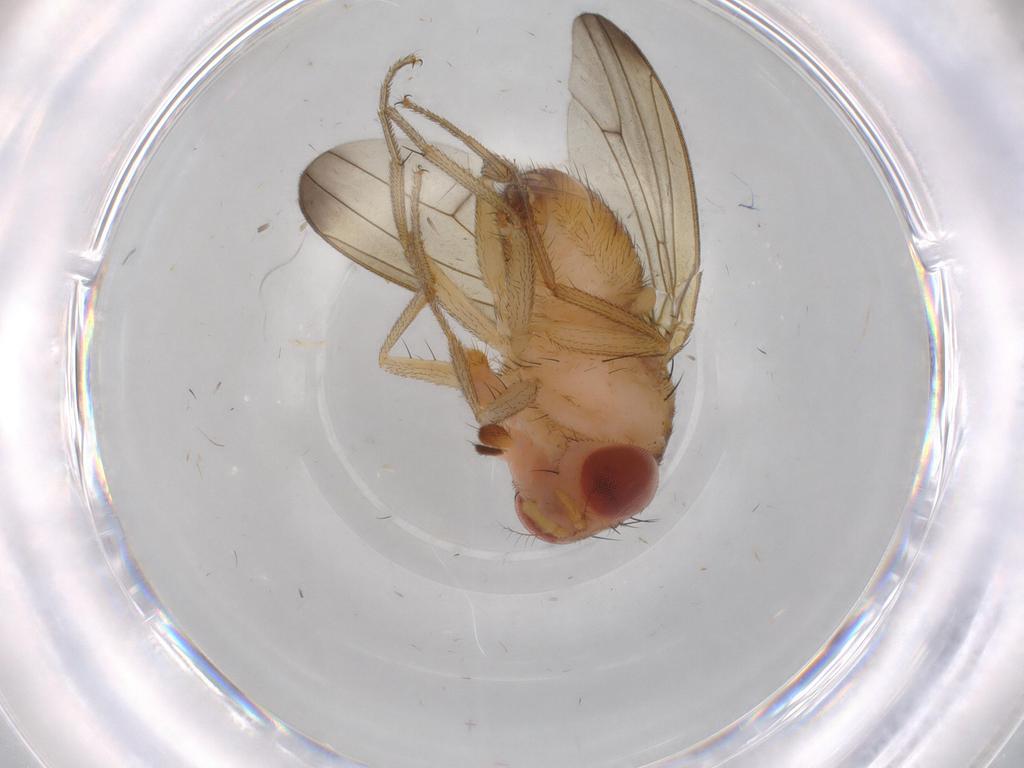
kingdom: Animalia
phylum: Arthropoda
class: Insecta
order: Diptera
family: Drosophilidae
